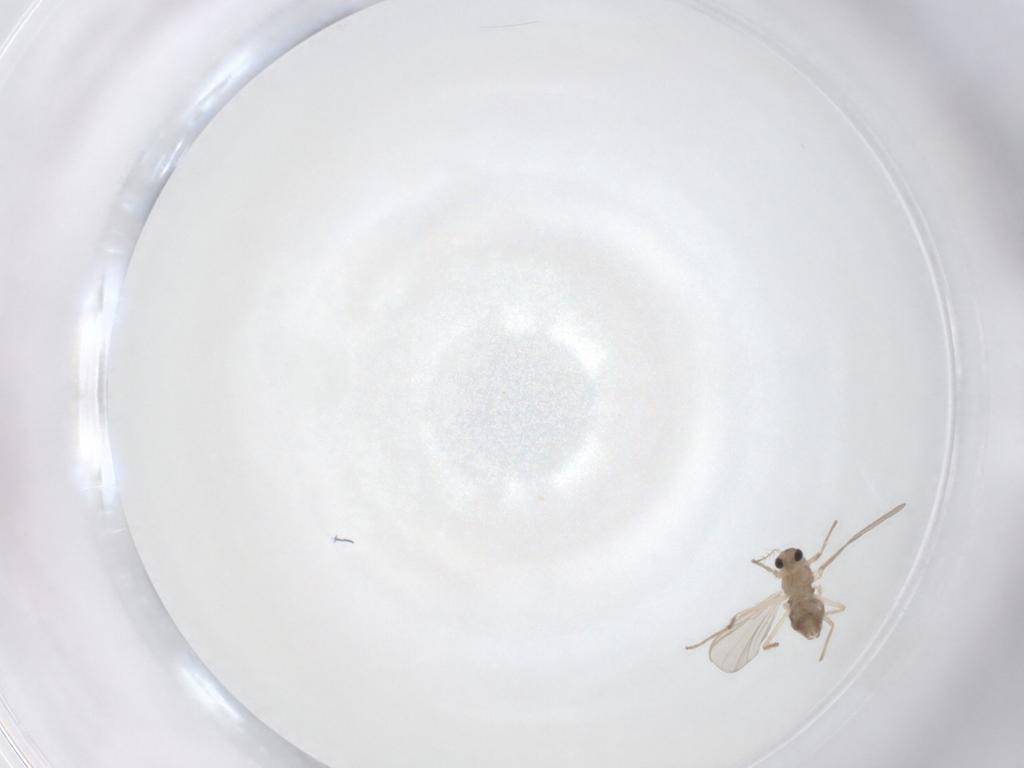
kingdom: Animalia
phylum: Arthropoda
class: Insecta
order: Diptera
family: Chironomidae
